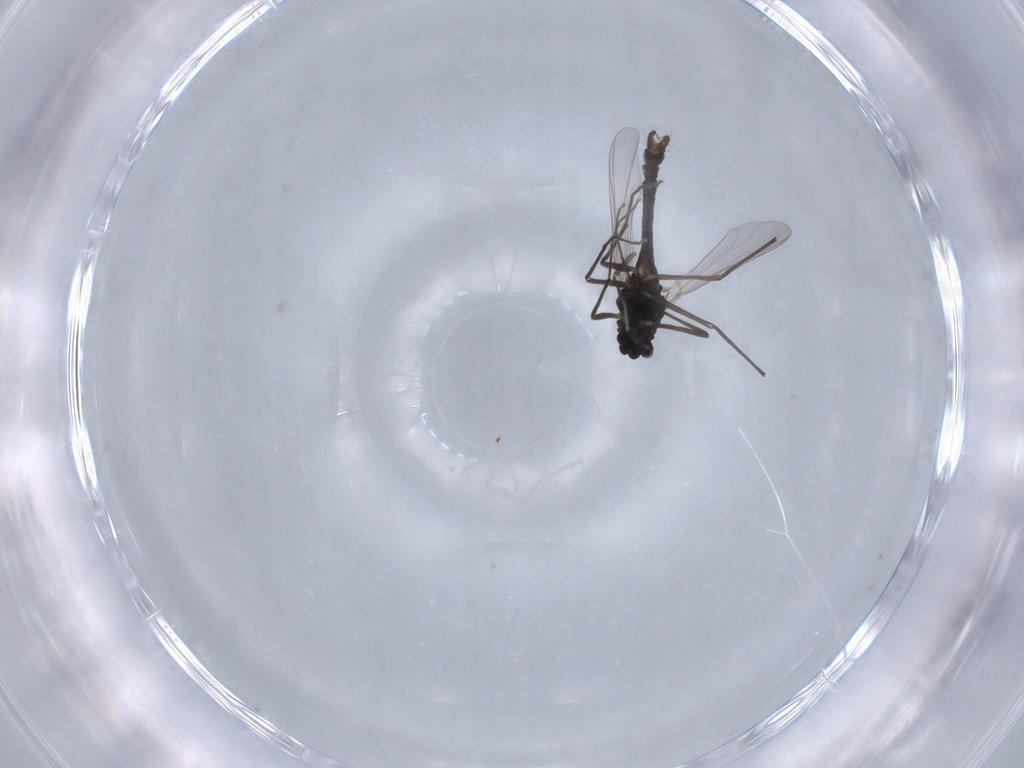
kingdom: Animalia
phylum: Arthropoda
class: Insecta
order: Diptera
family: Chironomidae
